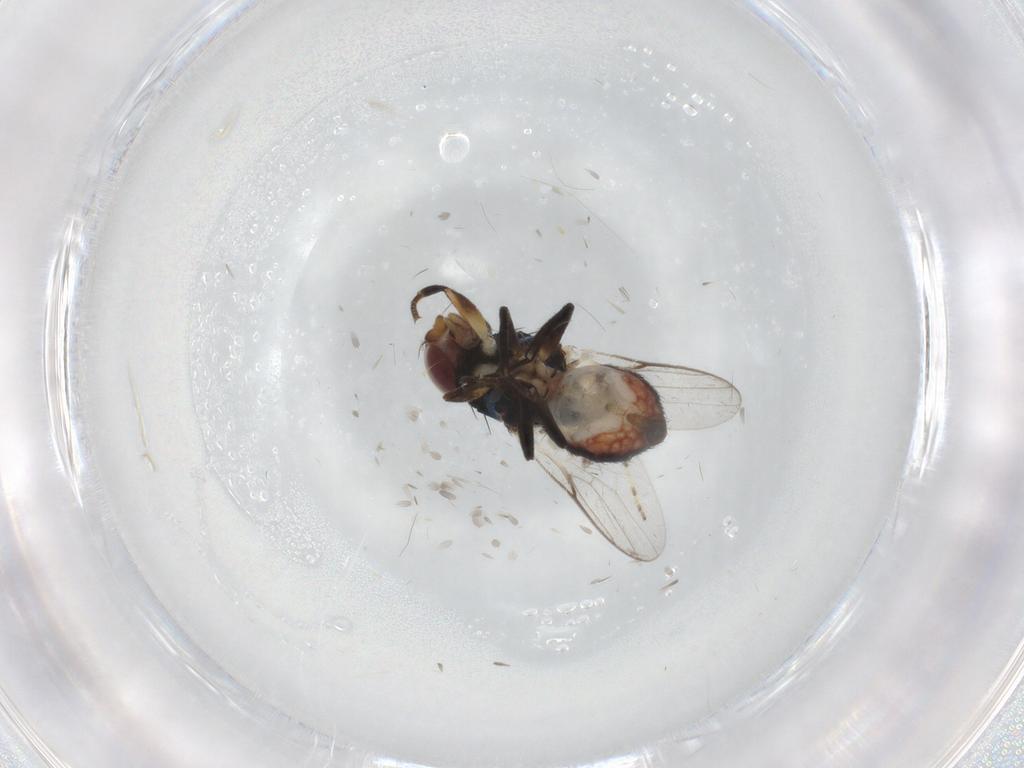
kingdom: Animalia
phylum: Arthropoda
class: Insecta
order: Diptera
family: Chloropidae
